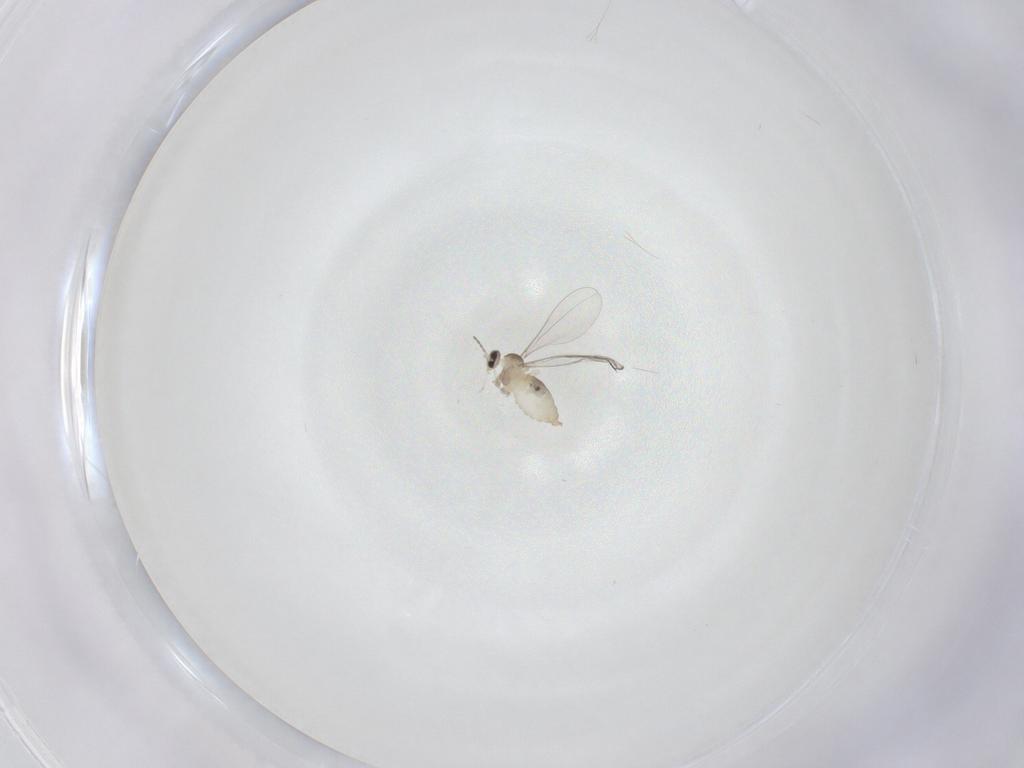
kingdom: Animalia
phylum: Arthropoda
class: Insecta
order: Diptera
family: Cecidomyiidae
